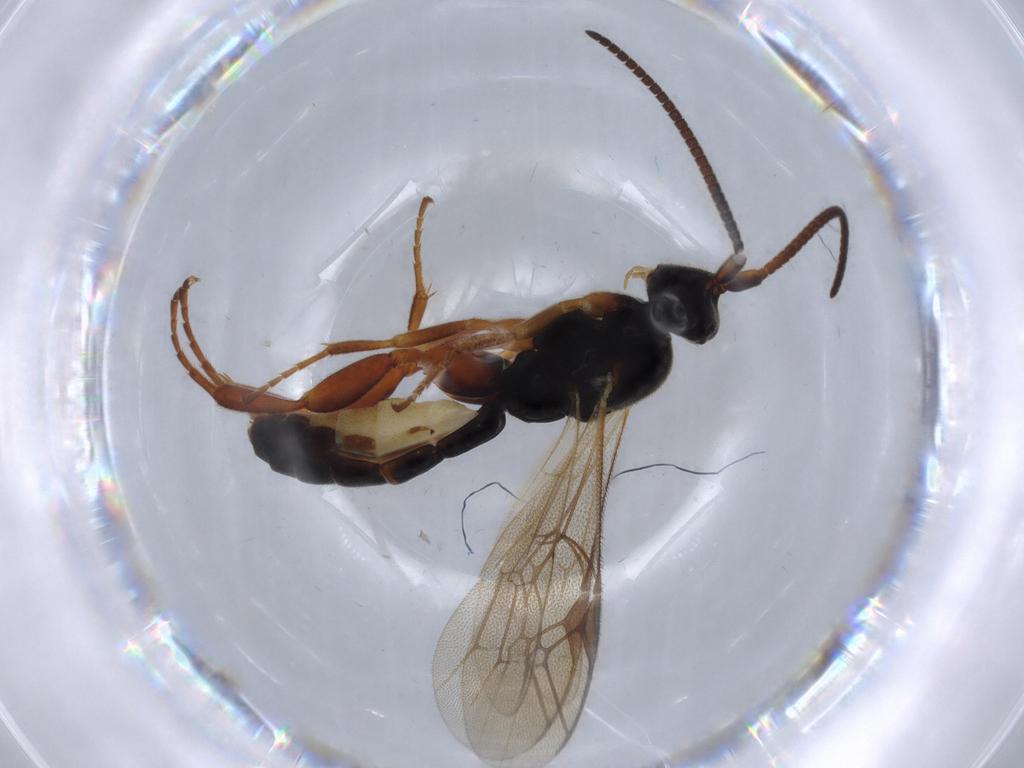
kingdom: Animalia
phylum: Arthropoda
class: Insecta
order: Hymenoptera
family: Ichneumonidae
